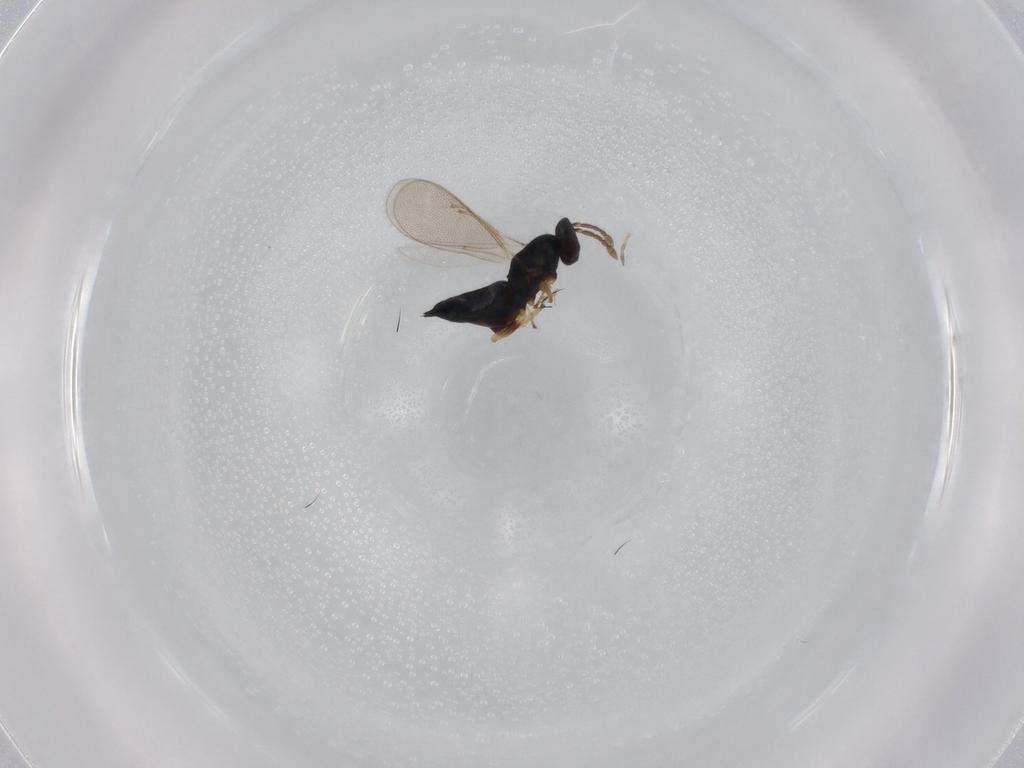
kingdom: Animalia
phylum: Arthropoda
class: Insecta
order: Hymenoptera
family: Eulophidae
